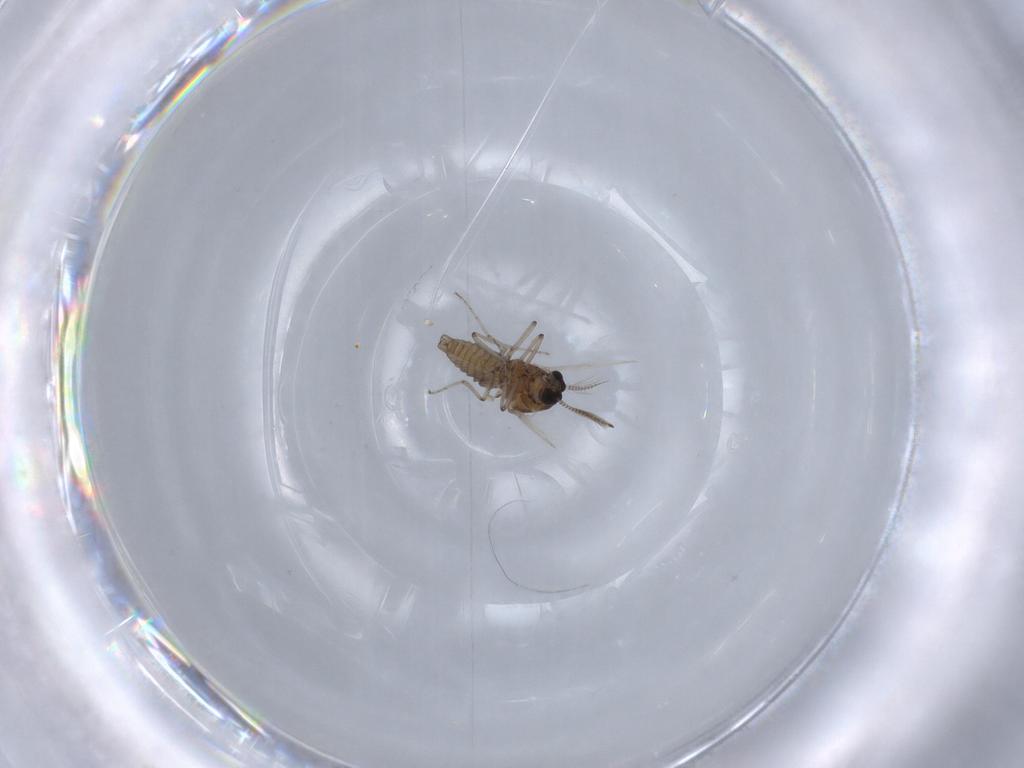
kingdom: Animalia
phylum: Arthropoda
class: Insecta
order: Diptera
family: Ceratopogonidae
